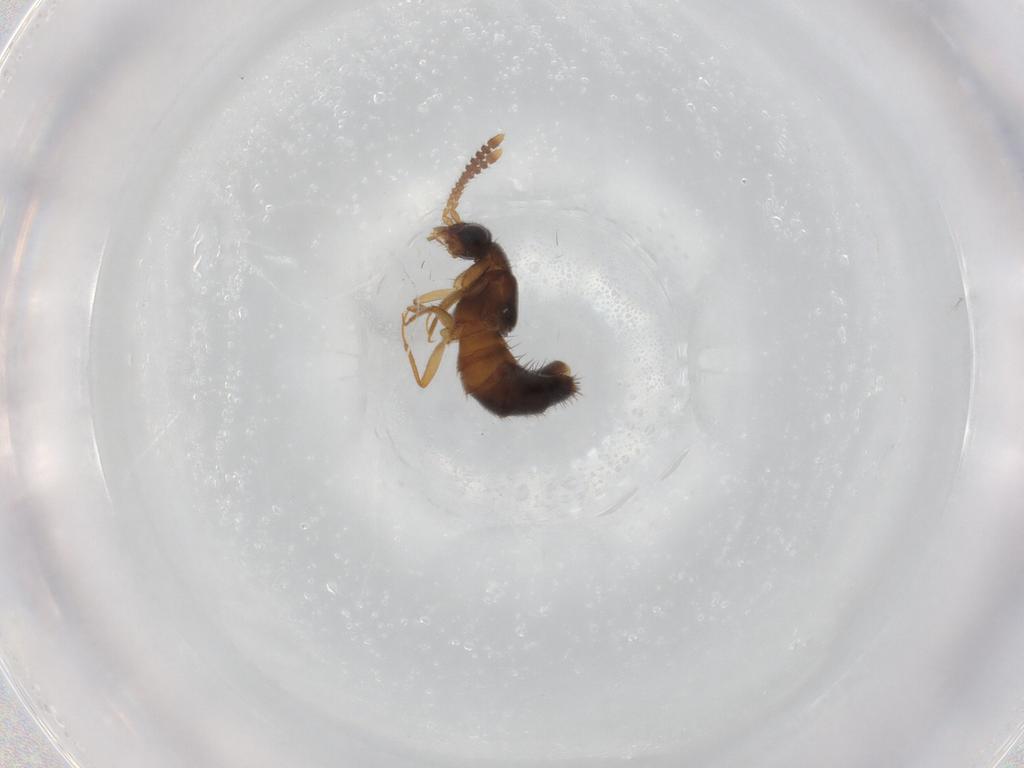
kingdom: Animalia
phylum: Arthropoda
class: Insecta
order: Coleoptera
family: Staphylinidae
